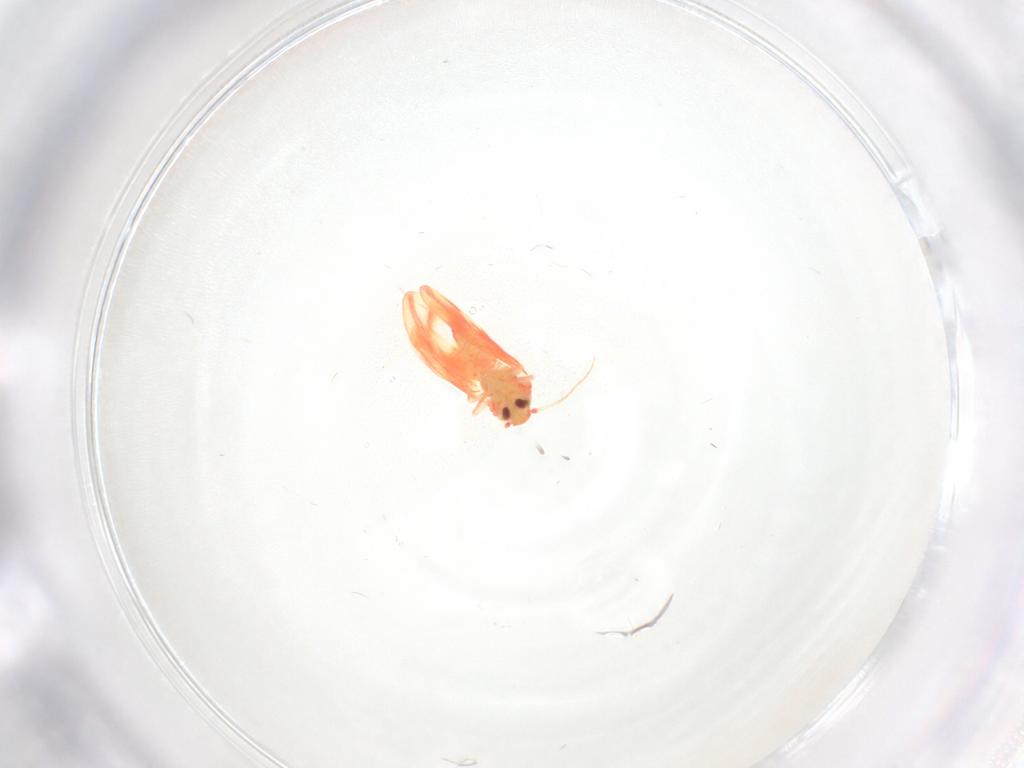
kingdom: Animalia
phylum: Arthropoda
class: Insecta
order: Hemiptera
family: Aleyrodidae
